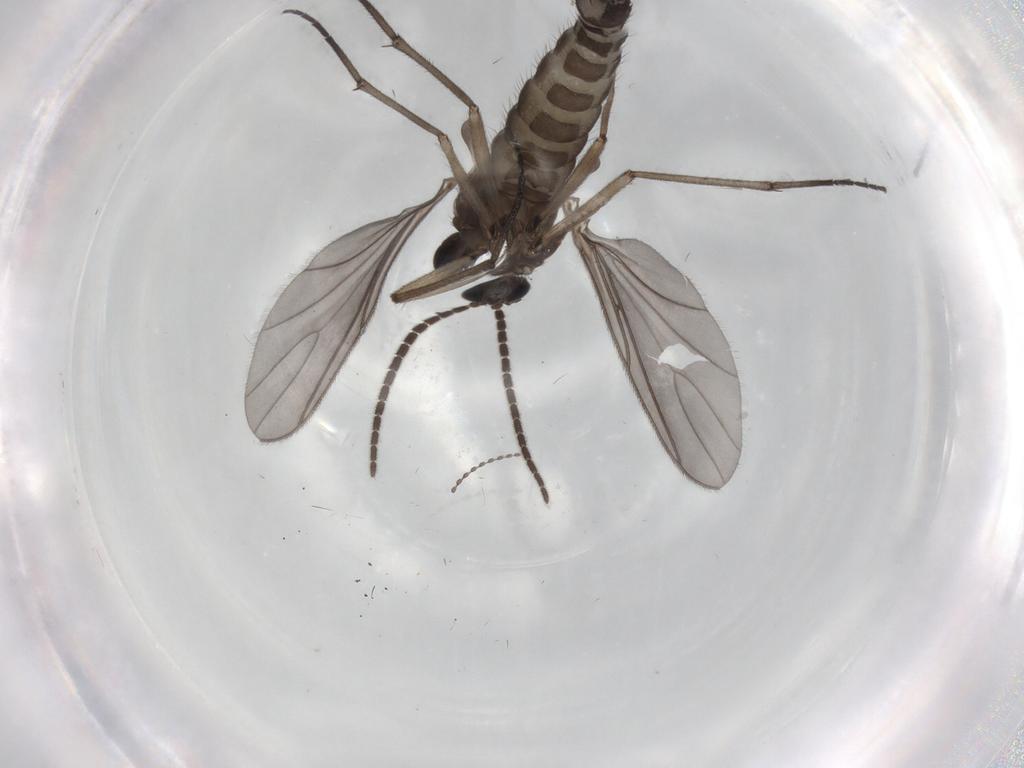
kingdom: Animalia
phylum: Arthropoda
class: Insecta
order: Diptera
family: Sciaridae
